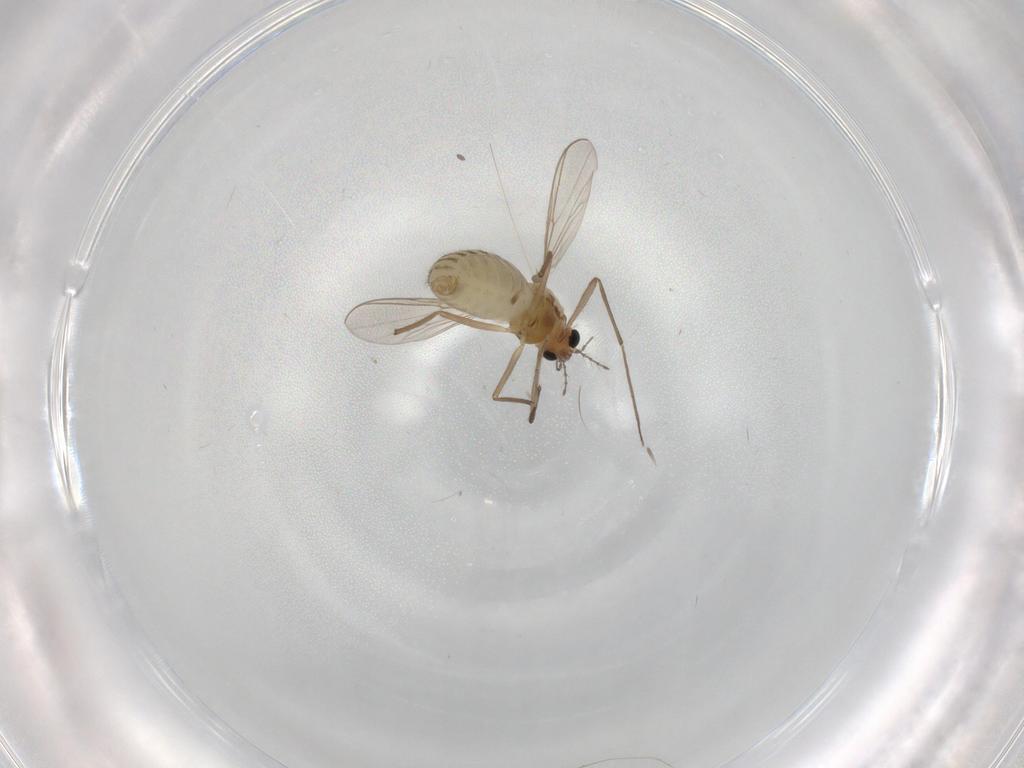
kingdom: Animalia
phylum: Arthropoda
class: Insecta
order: Diptera
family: Chironomidae
